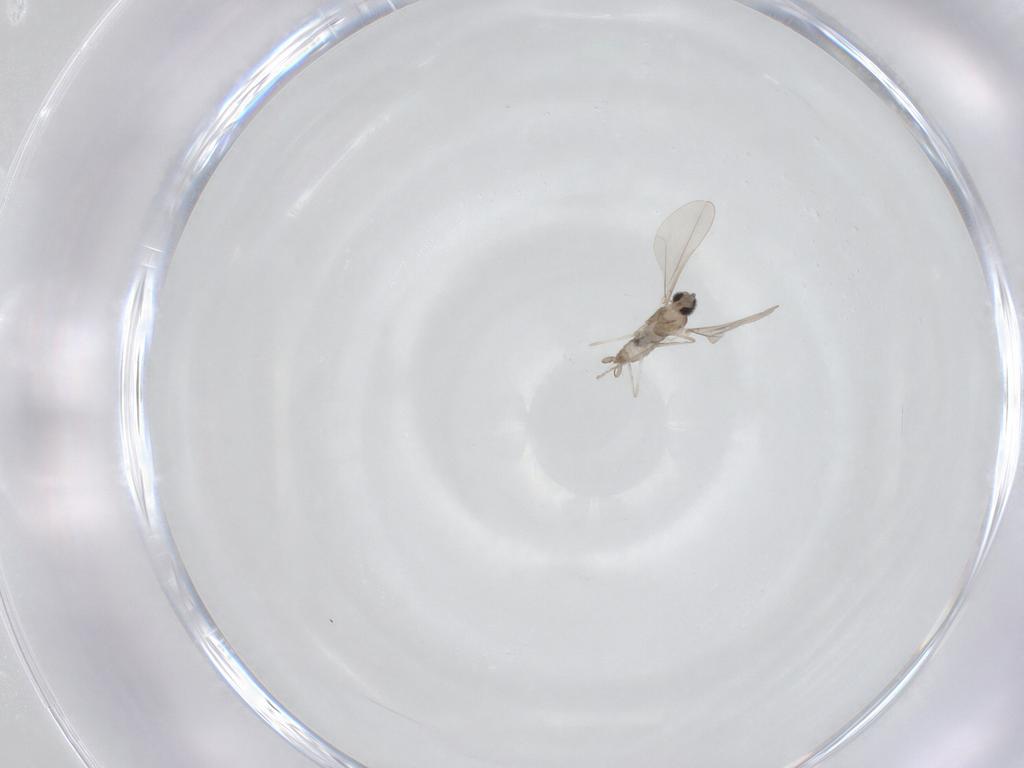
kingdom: Animalia
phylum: Arthropoda
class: Insecta
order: Diptera
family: Cecidomyiidae
